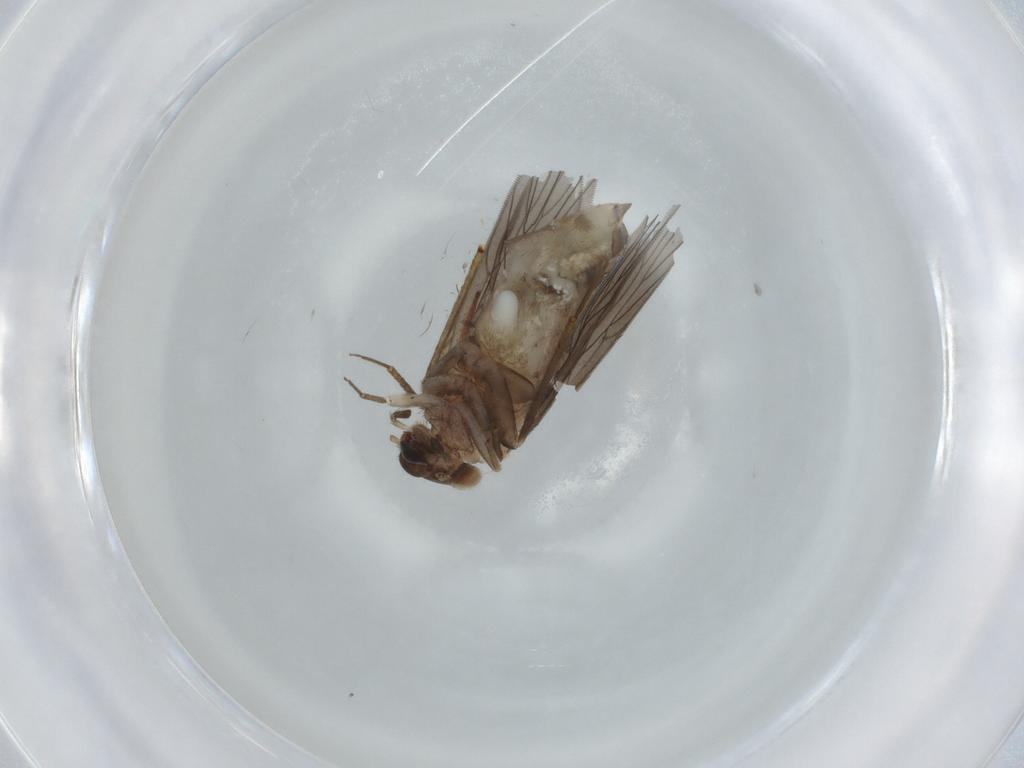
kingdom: Animalia
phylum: Arthropoda
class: Insecta
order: Psocodea
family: Lepidopsocidae
